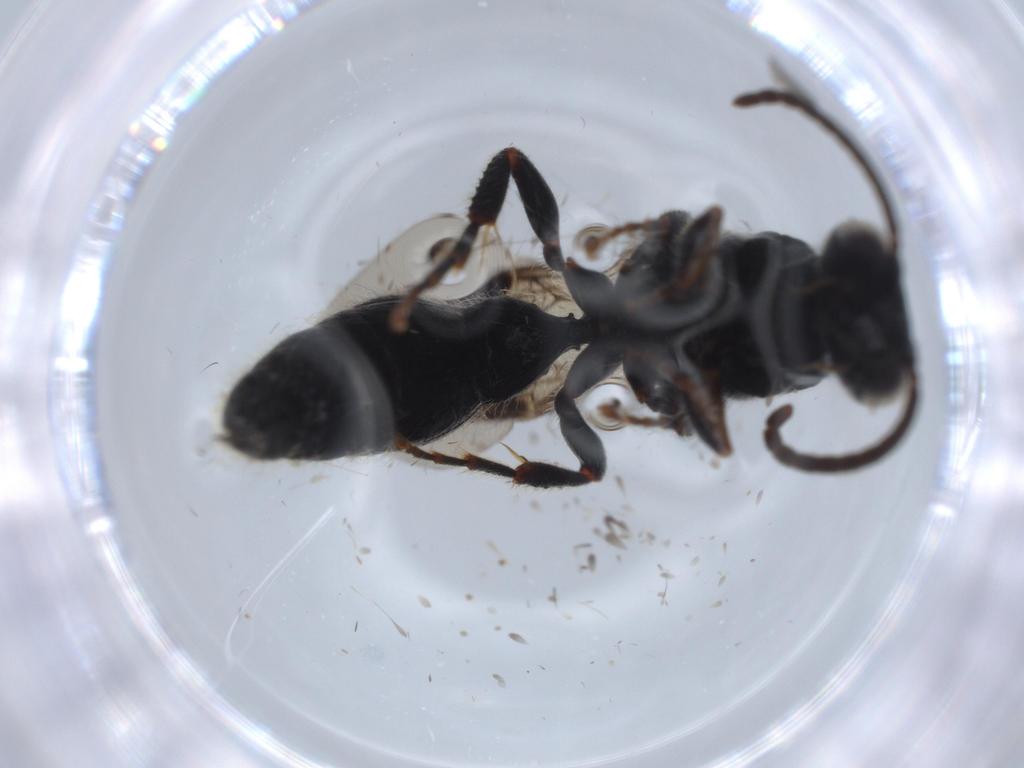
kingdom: Animalia
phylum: Arthropoda
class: Insecta
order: Hymenoptera
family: Tiphiidae
